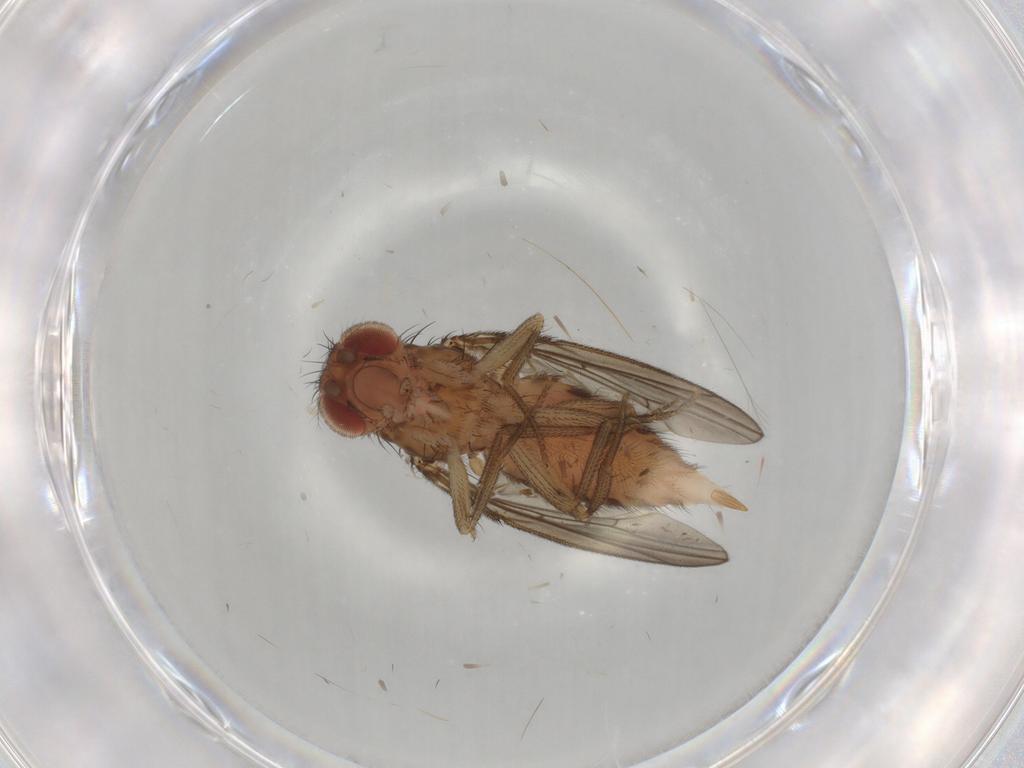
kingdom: Animalia
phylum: Arthropoda
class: Insecta
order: Diptera
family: Drosophilidae
